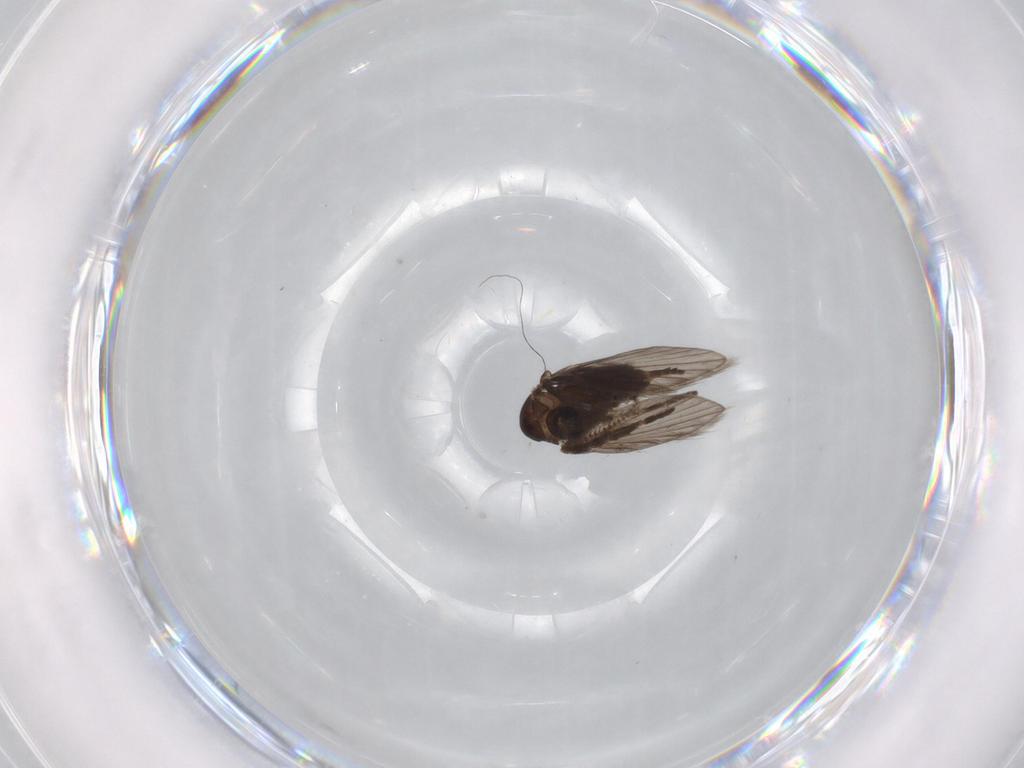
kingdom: Animalia
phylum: Arthropoda
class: Insecta
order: Diptera
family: Psychodidae
